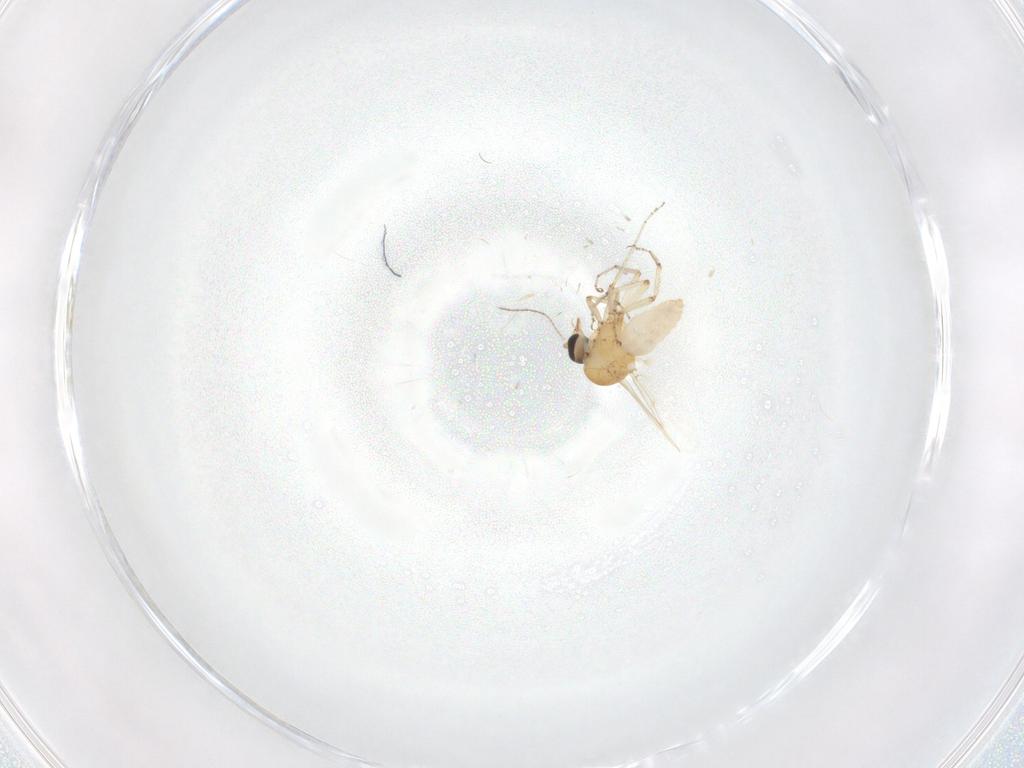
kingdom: Animalia
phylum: Arthropoda
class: Insecta
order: Diptera
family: Ceratopogonidae
